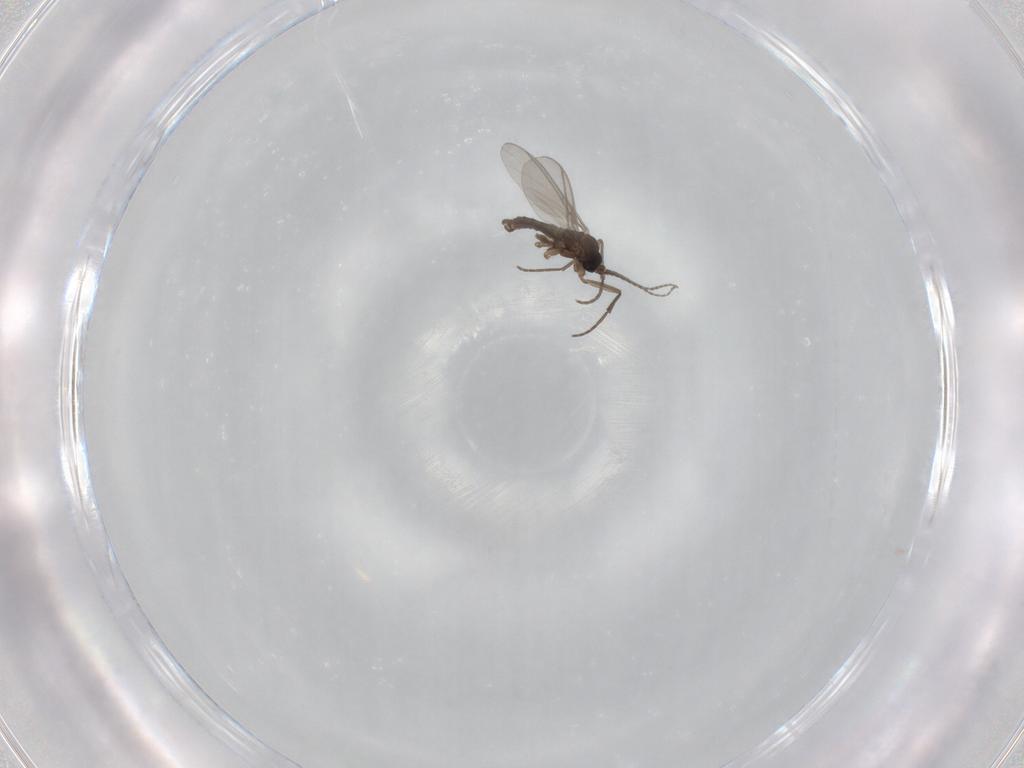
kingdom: Animalia
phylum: Arthropoda
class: Insecta
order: Diptera
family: Sciaridae
